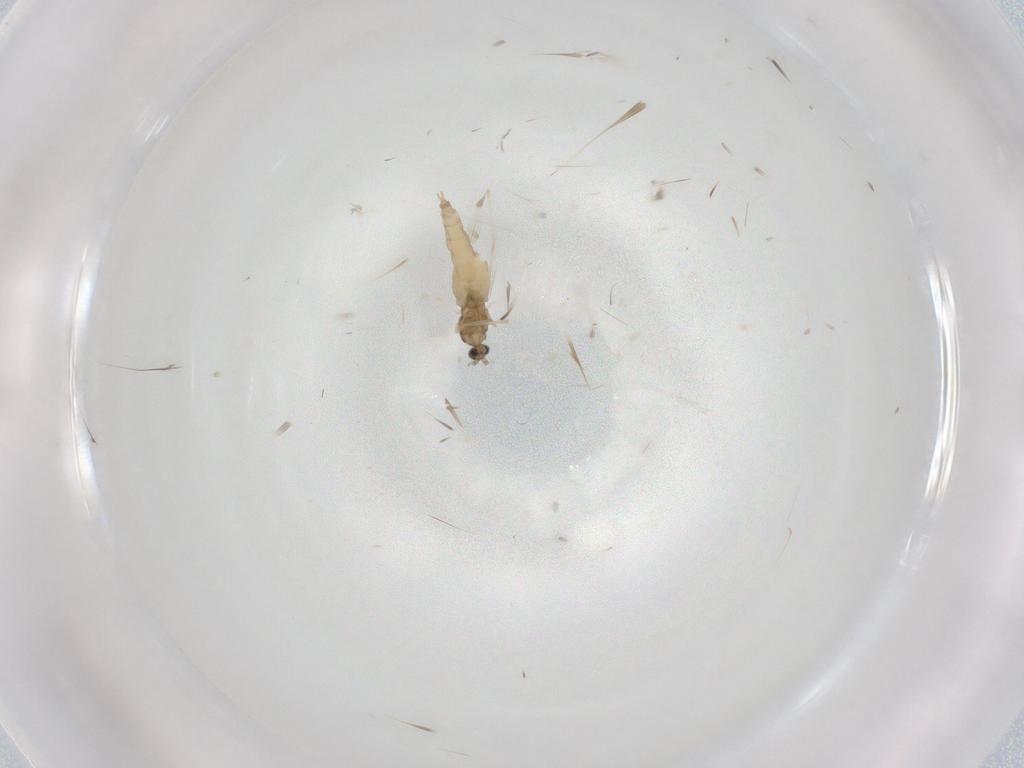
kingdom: Animalia
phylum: Arthropoda
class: Insecta
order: Diptera
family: Cecidomyiidae
